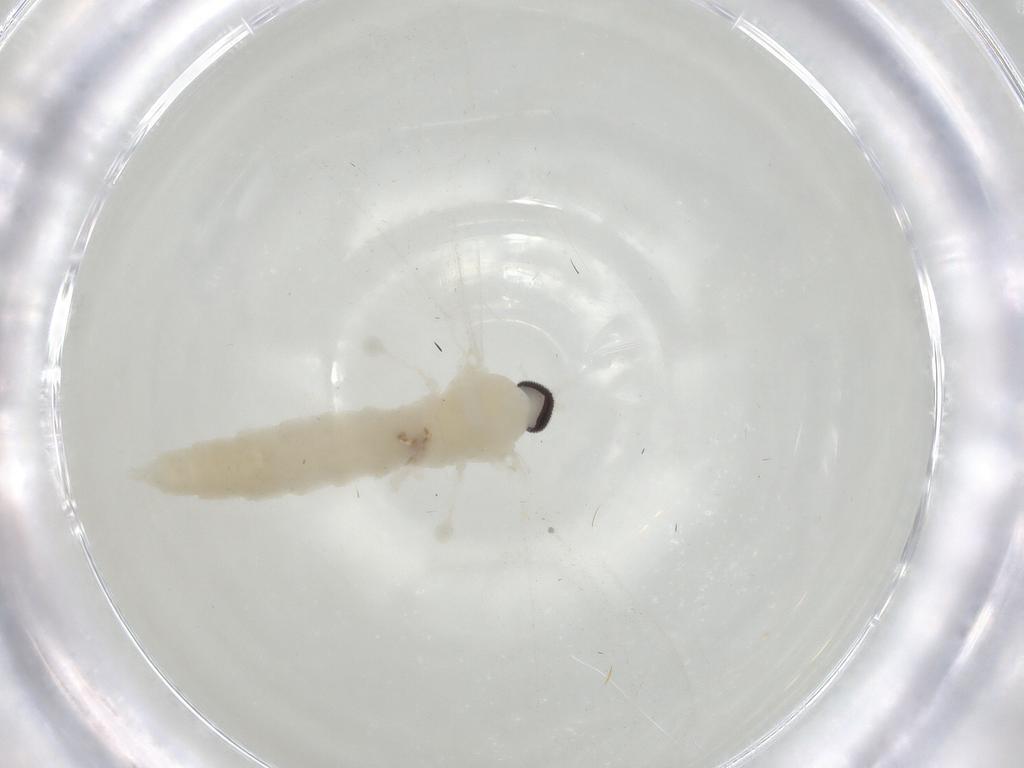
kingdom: Animalia
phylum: Arthropoda
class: Insecta
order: Diptera
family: Cecidomyiidae
